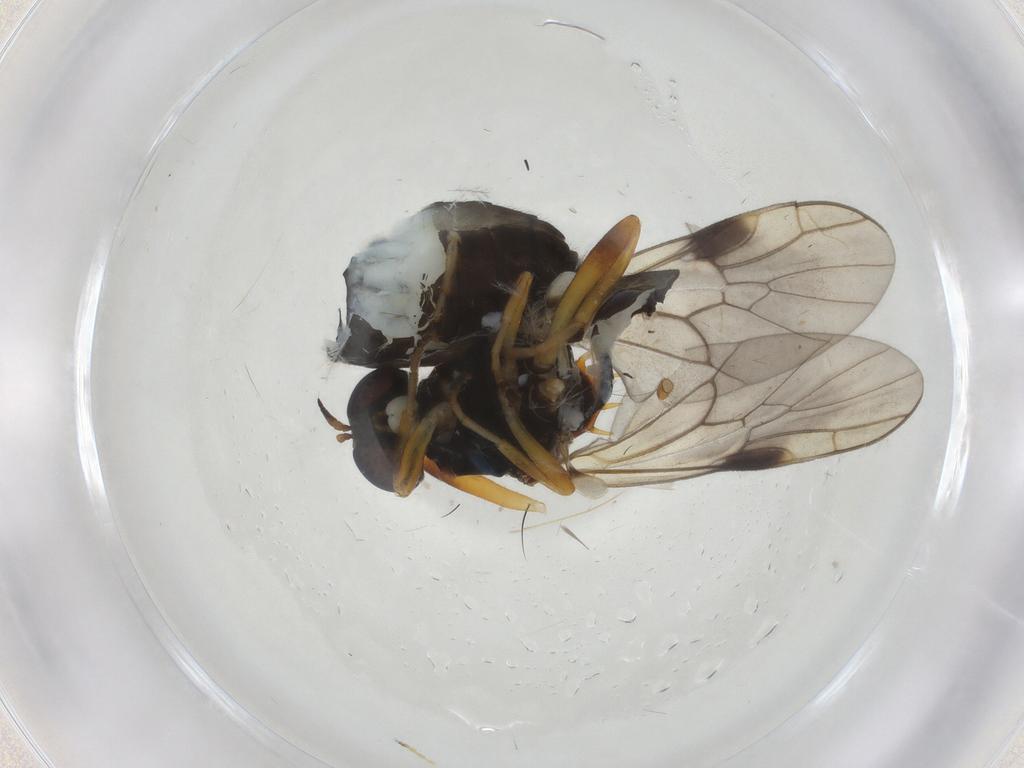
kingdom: Animalia
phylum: Arthropoda
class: Insecta
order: Diptera
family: Stratiomyidae
